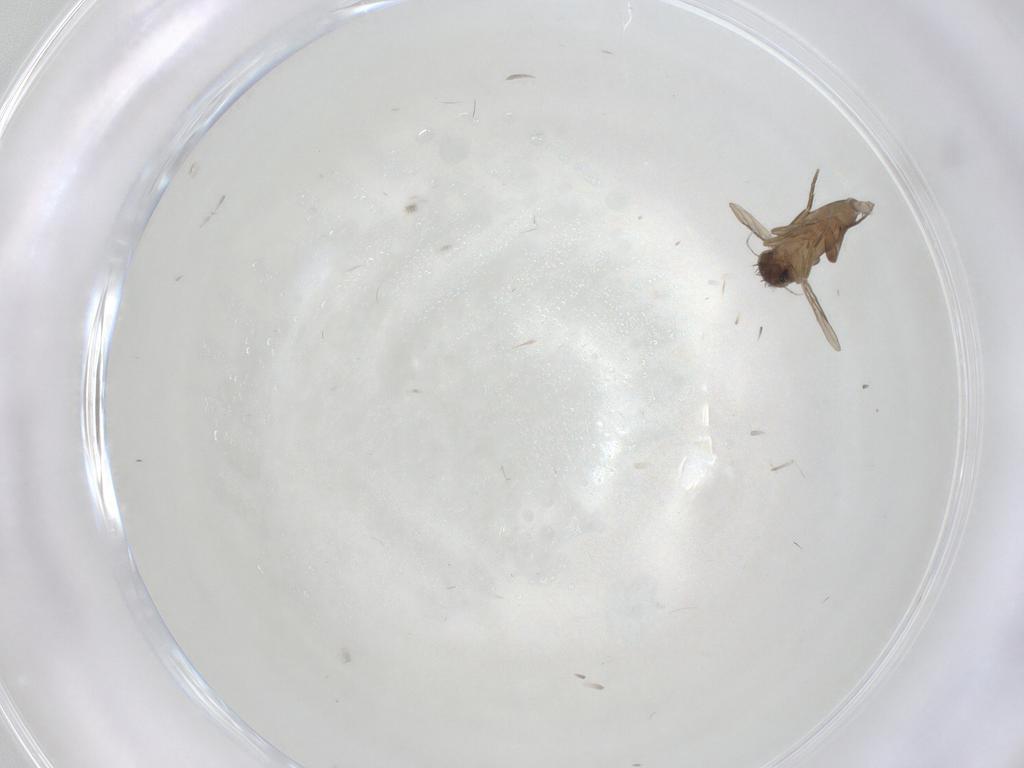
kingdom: Animalia
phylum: Arthropoda
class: Insecta
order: Diptera
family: Phoridae
